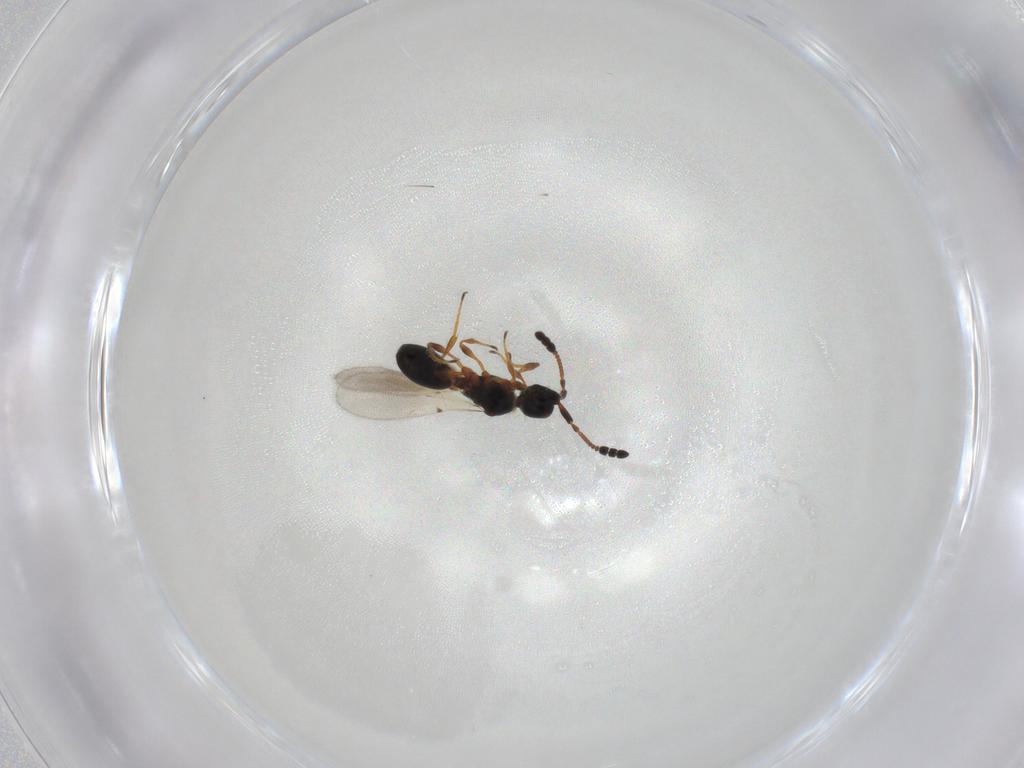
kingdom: Animalia
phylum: Arthropoda
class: Insecta
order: Hymenoptera
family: Diapriidae
